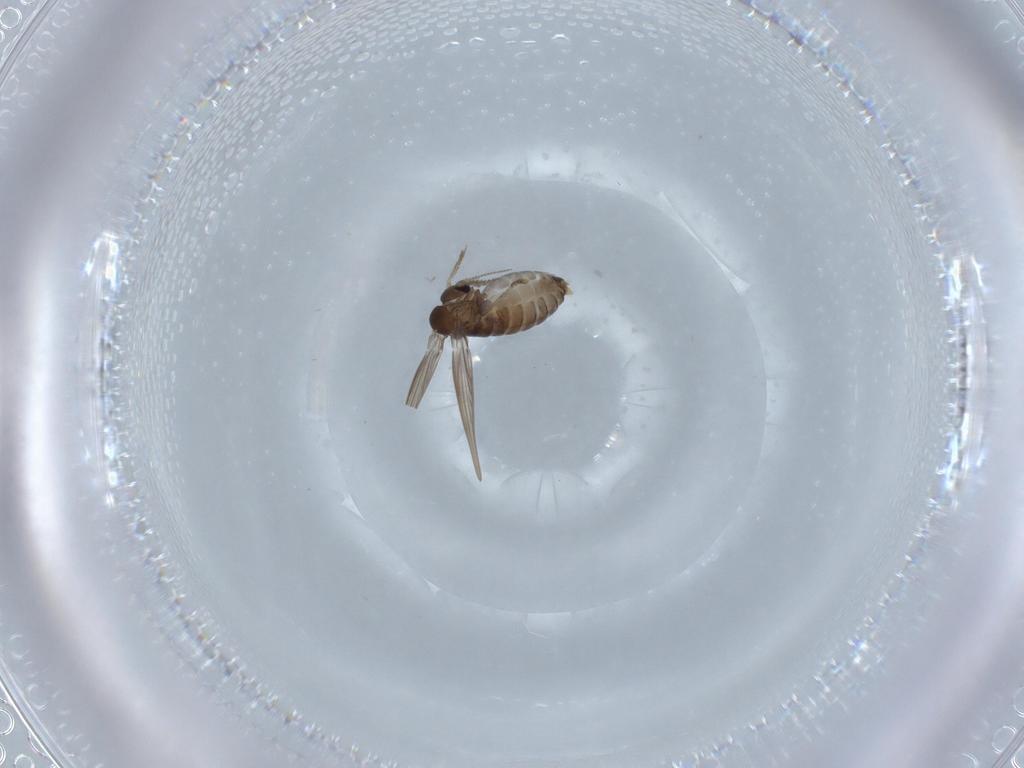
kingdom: Animalia
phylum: Arthropoda
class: Insecta
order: Diptera
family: Psychodidae
